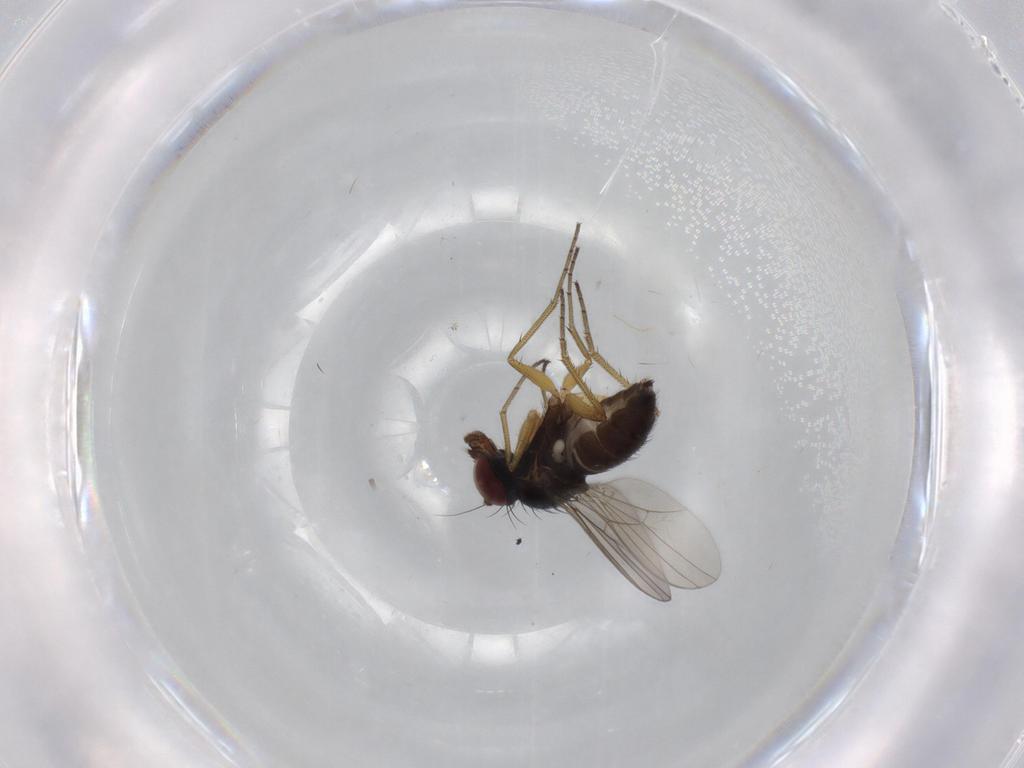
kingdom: Animalia
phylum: Arthropoda
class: Insecta
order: Diptera
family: Dolichopodidae
